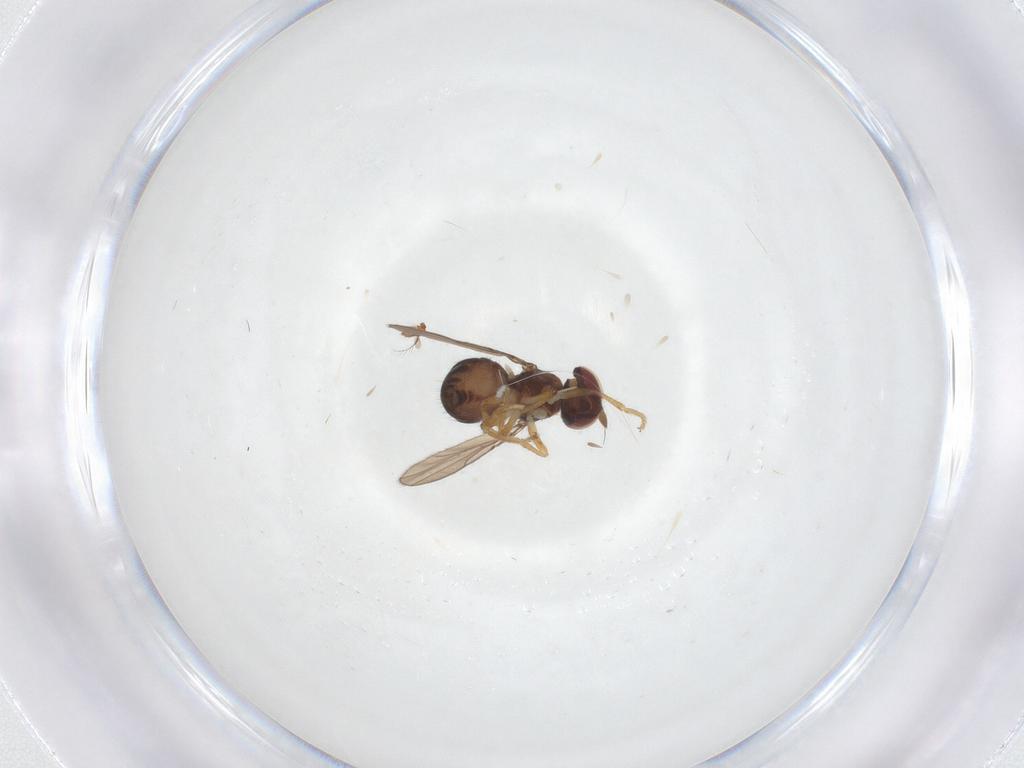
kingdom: Animalia
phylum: Arthropoda
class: Insecta
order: Diptera
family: Ephydridae
